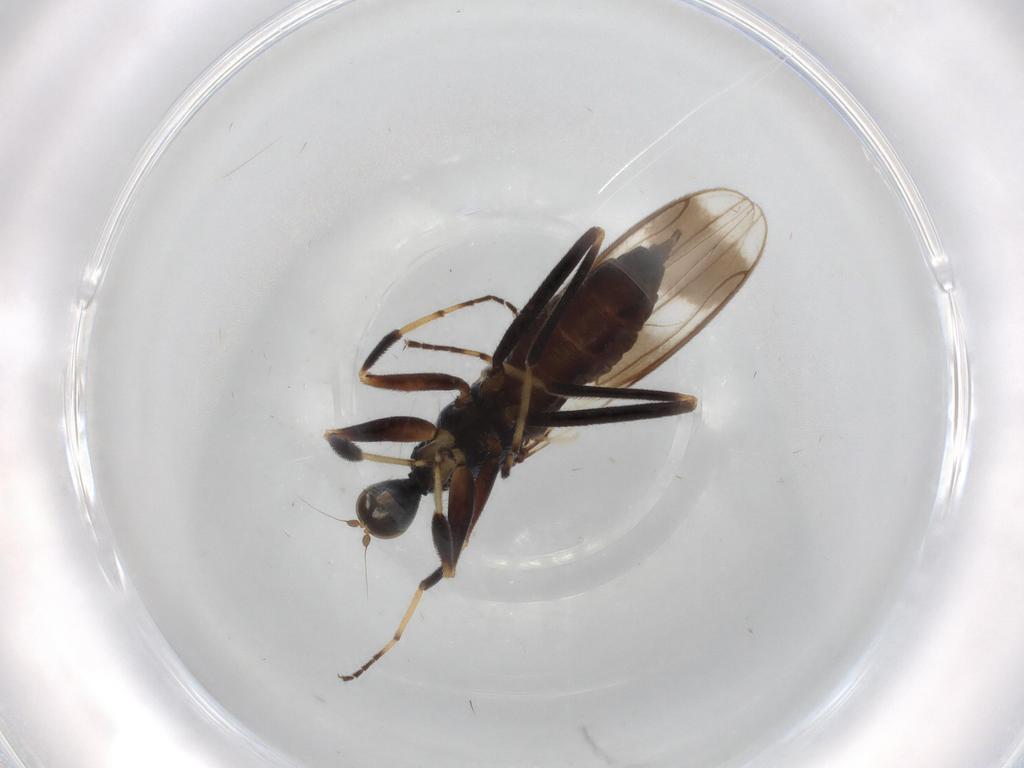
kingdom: Animalia
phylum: Arthropoda
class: Insecta
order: Diptera
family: Hybotidae
